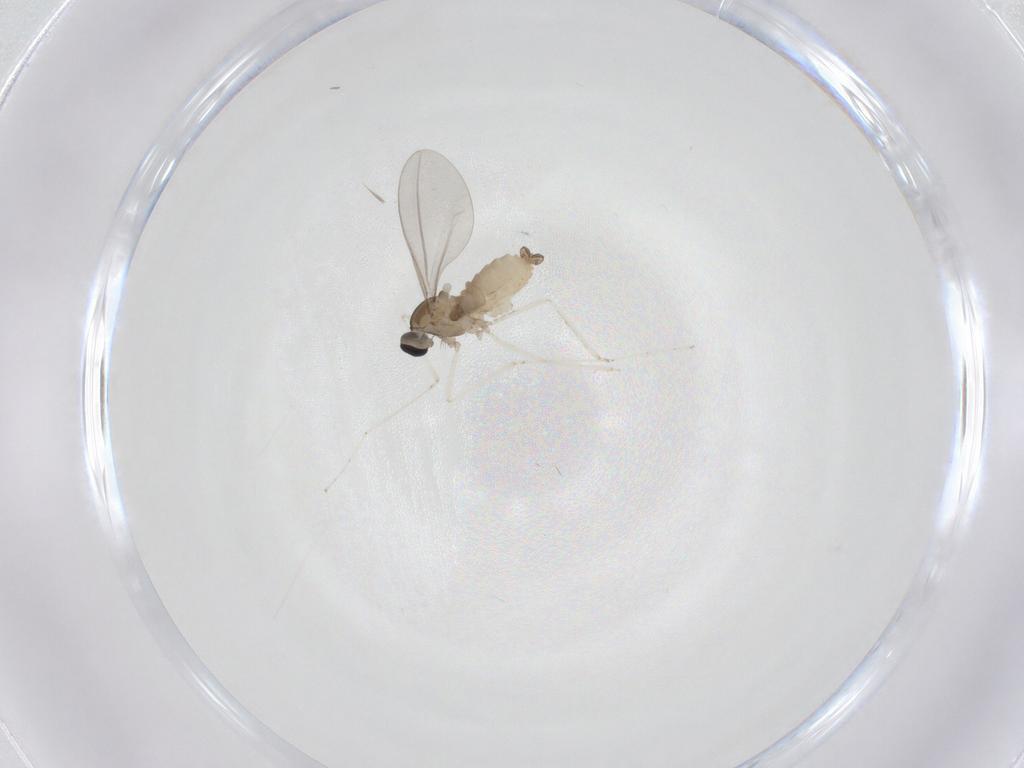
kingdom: Animalia
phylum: Arthropoda
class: Insecta
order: Diptera
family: Cecidomyiidae
